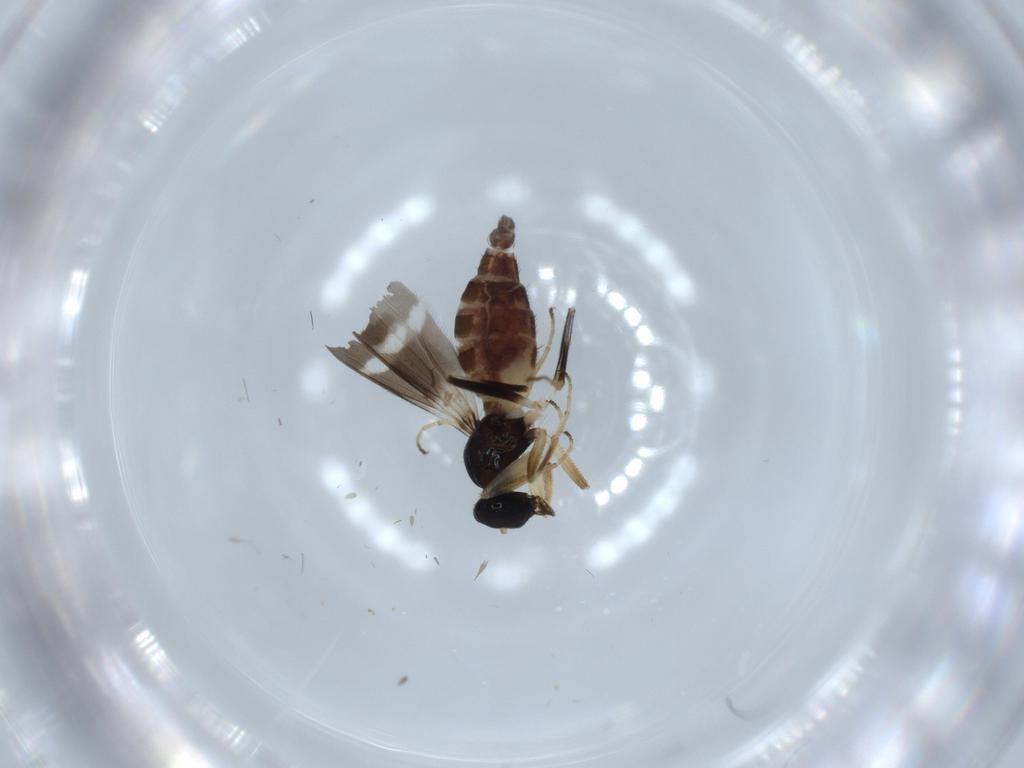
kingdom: Animalia
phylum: Arthropoda
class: Insecta
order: Diptera
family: Hybotidae
